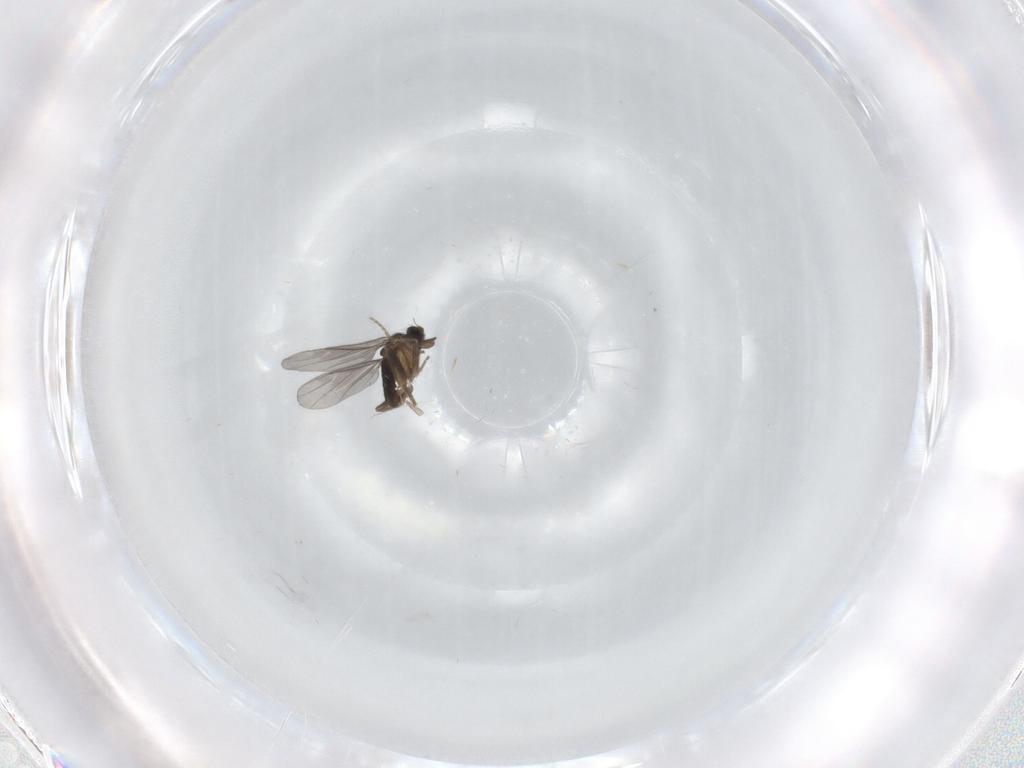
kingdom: Animalia
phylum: Arthropoda
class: Insecta
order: Diptera
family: Phoridae
